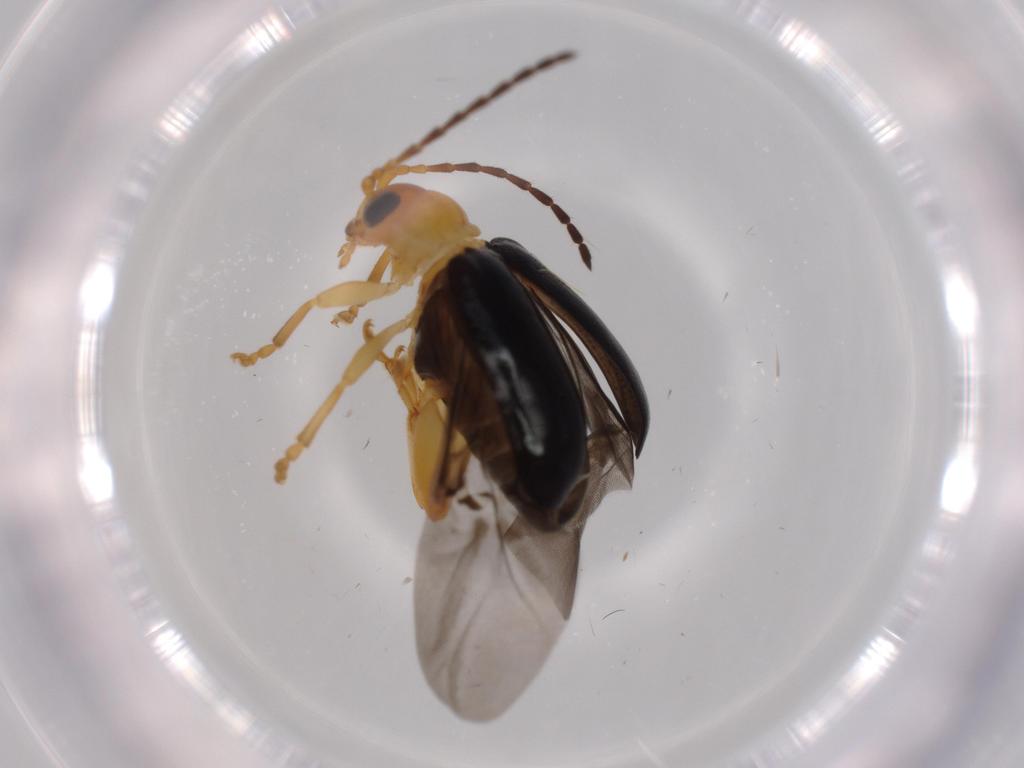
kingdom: Animalia
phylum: Arthropoda
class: Insecta
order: Coleoptera
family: Chrysomelidae
